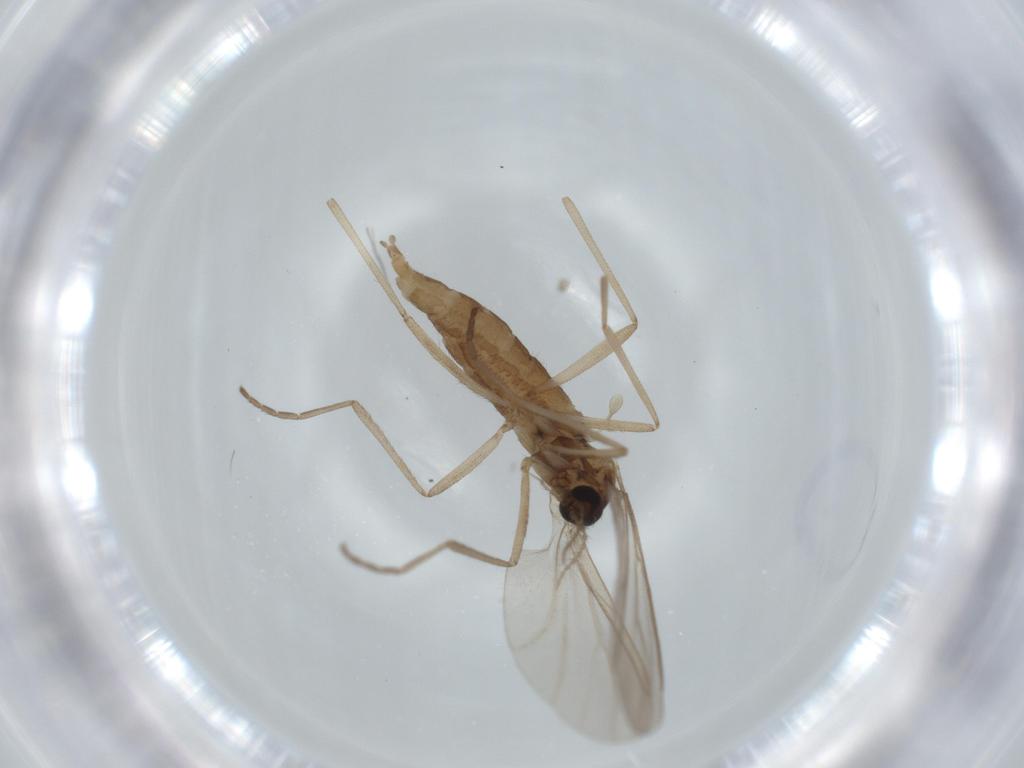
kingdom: Animalia
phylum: Arthropoda
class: Insecta
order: Diptera
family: Cecidomyiidae
